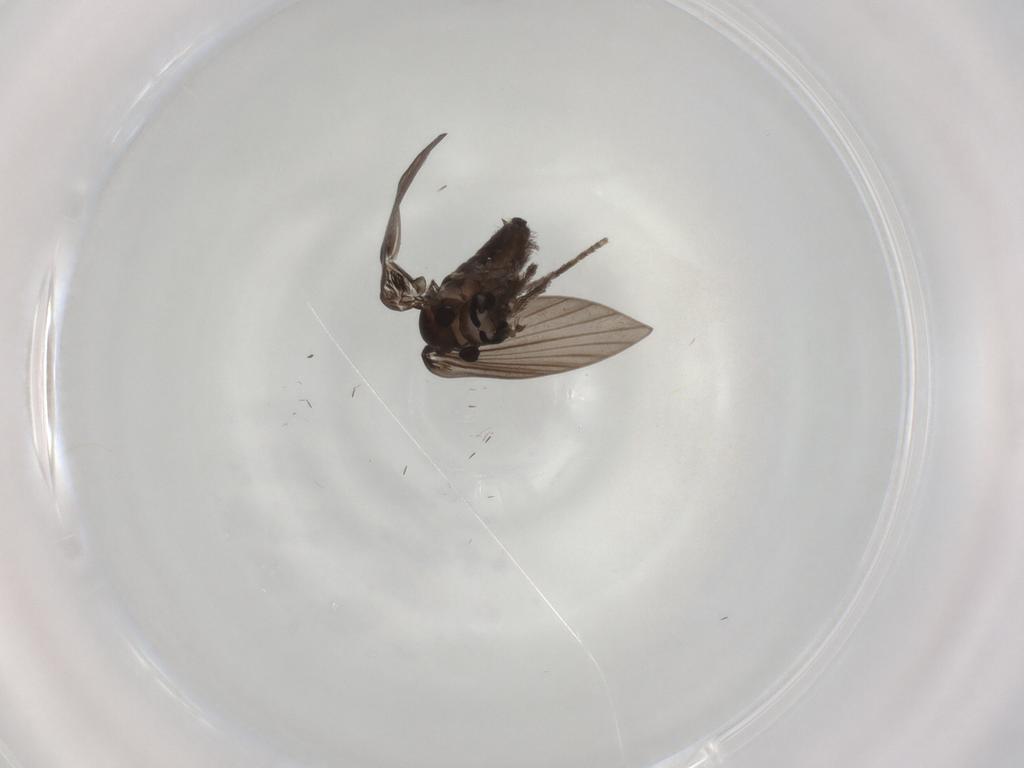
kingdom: Animalia
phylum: Arthropoda
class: Insecta
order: Diptera
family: Psychodidae
